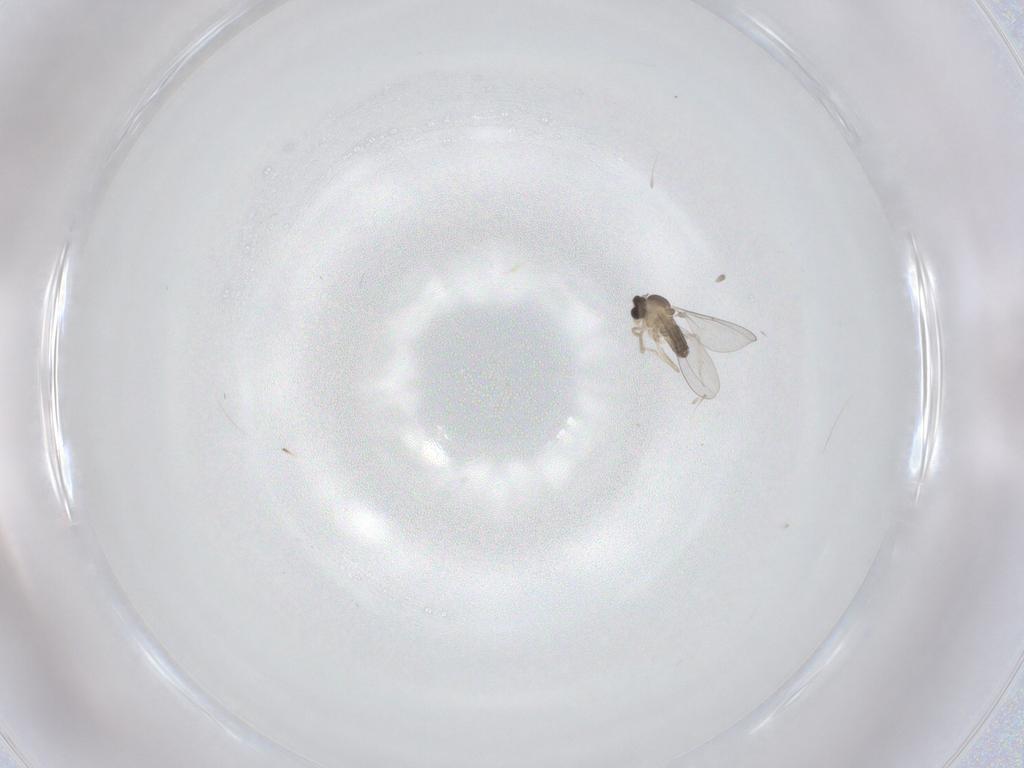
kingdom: Animalia
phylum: Arthropoda
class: Insecta
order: Diptera
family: Cecidomyiidae
